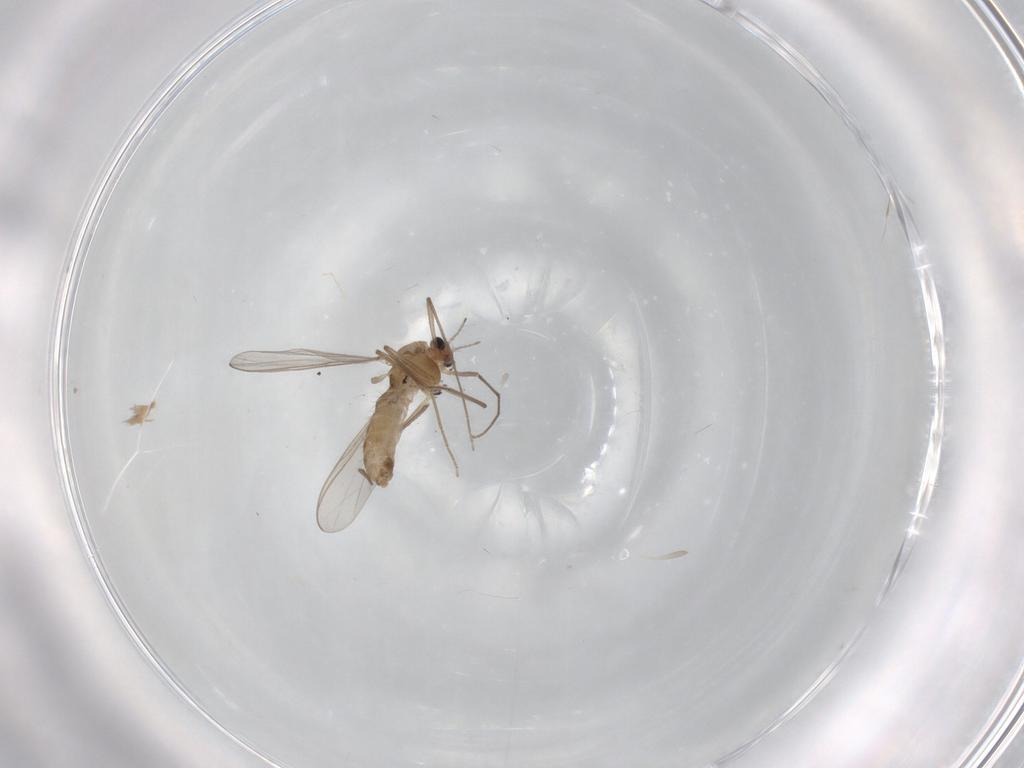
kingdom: Animalia
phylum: Arthropoda
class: Insecta
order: Diptera
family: Chironomidae
